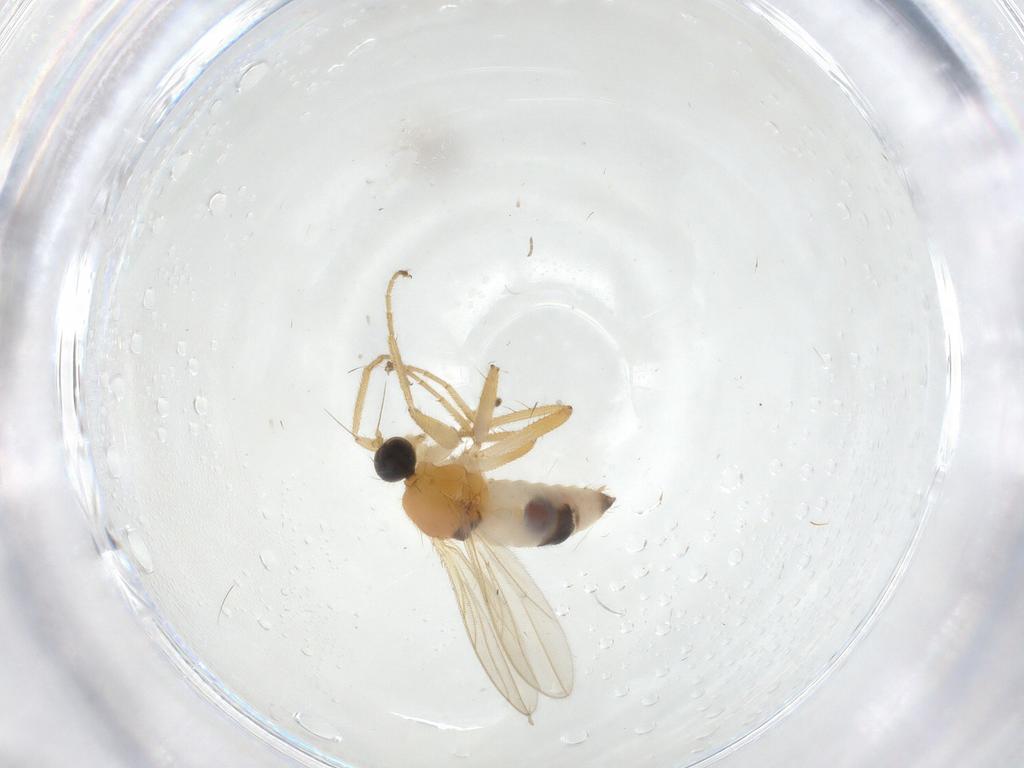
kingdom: Animalia
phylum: Arthropoda
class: Insecta
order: Diptera
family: Hybotidae
